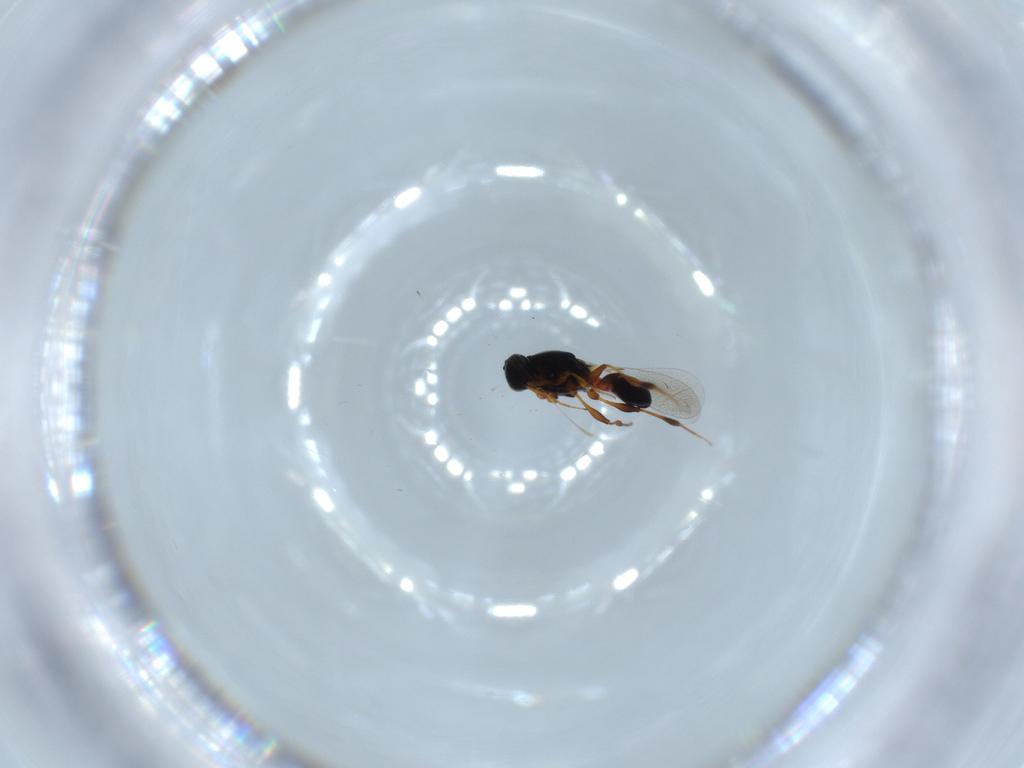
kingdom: Animalia
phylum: Arthropoda
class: Insecta
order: Hymenoptera
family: Platygastridae
